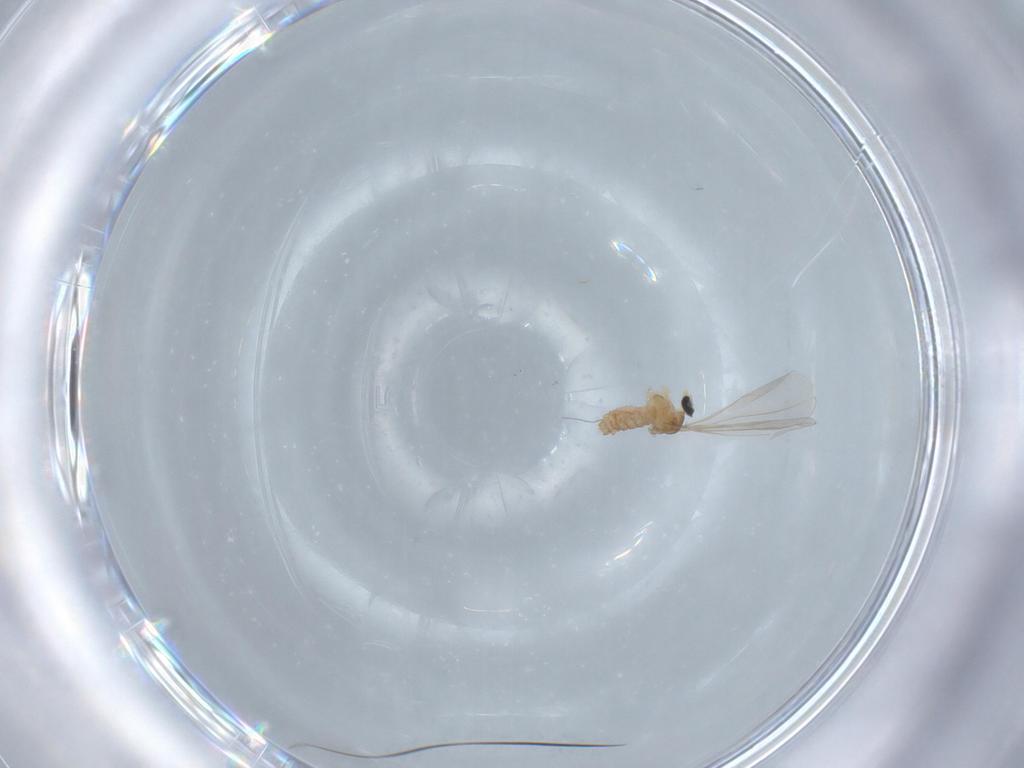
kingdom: Animalia
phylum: Arthropoda
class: Insecta
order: Diptera
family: Cecidomyiidae
